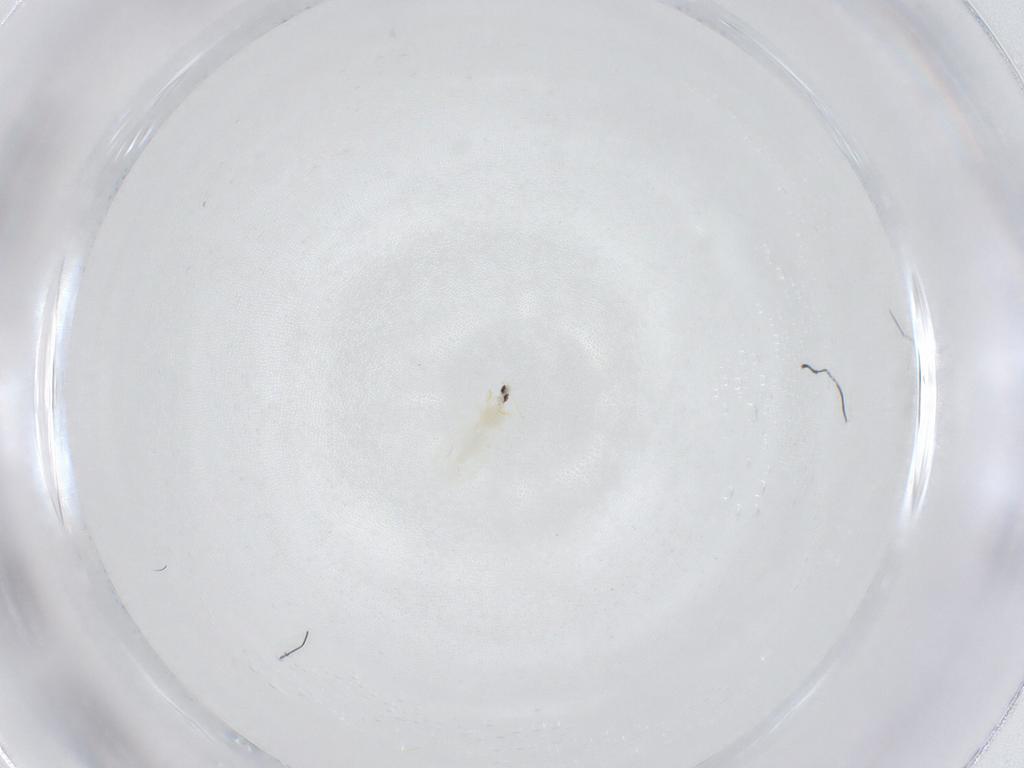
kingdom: Animalia
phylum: Arthropoda
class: Insecta
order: Hemiptera
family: Aleyrodidae
